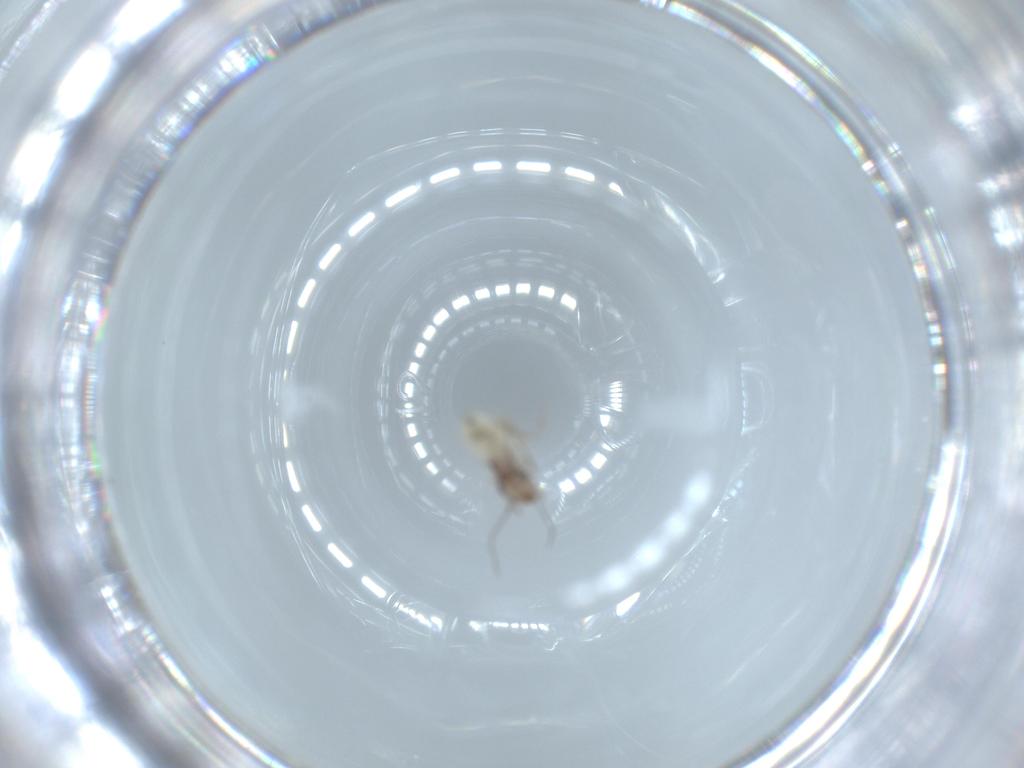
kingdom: Animalia
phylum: Arthropoda
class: Insecta
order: Psocodea
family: Lepidopsocidae
